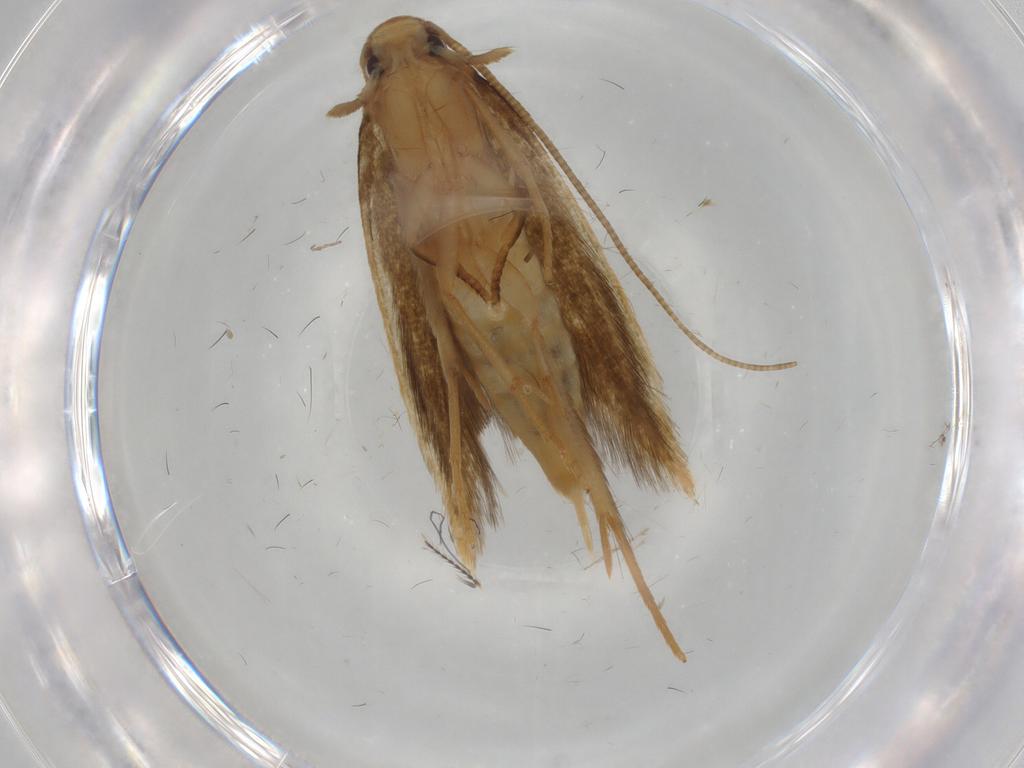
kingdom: Animalia
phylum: Arthropoda
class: Insecta
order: Lepidoptera
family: Tineidae
